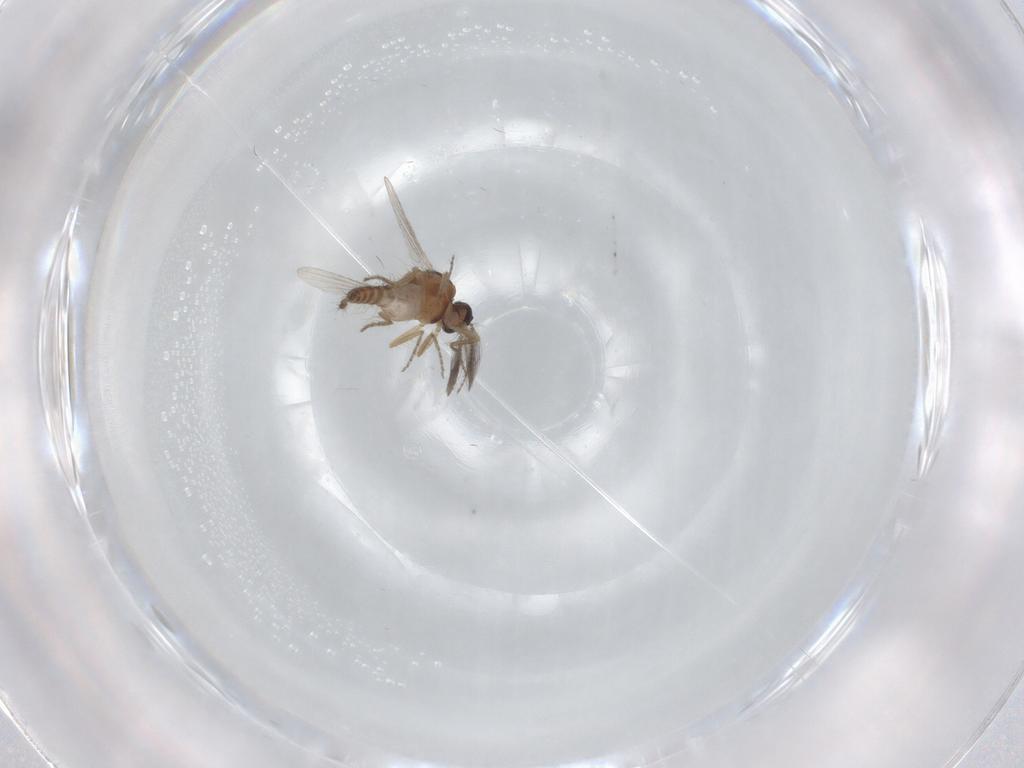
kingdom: Animalia
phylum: Arthropoda
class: Insecta
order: Diptera
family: Ceratopogonidae
